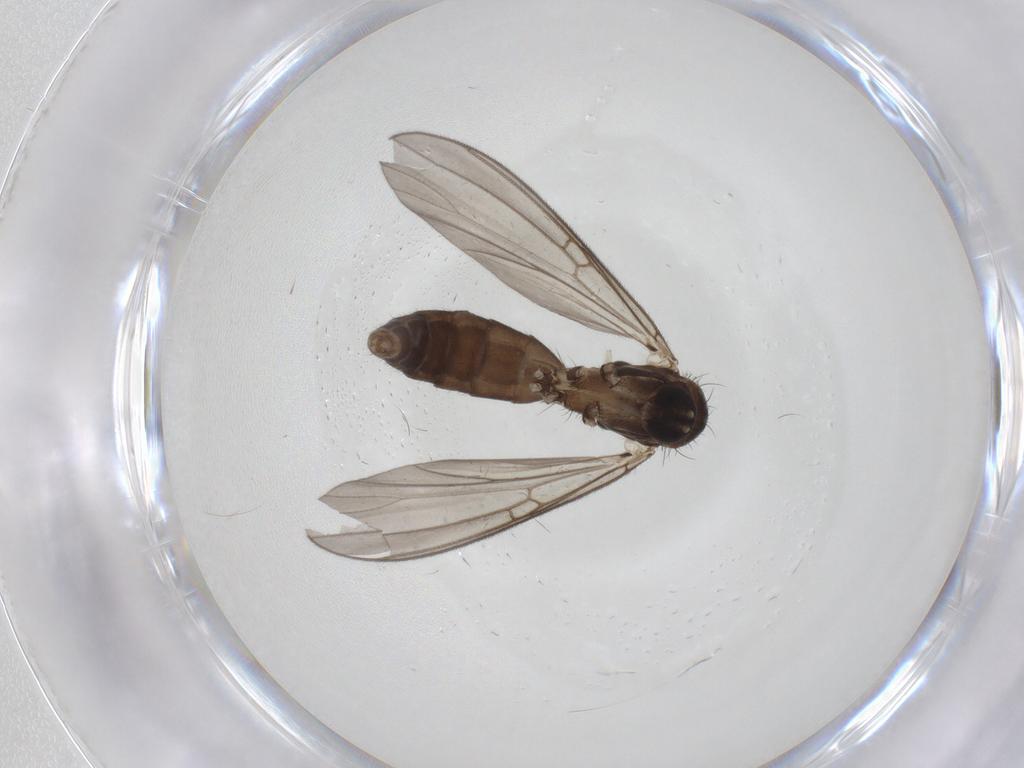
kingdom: Animalia
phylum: Arthropoda
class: Insecta
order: Diptera
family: Mycetophilidae
